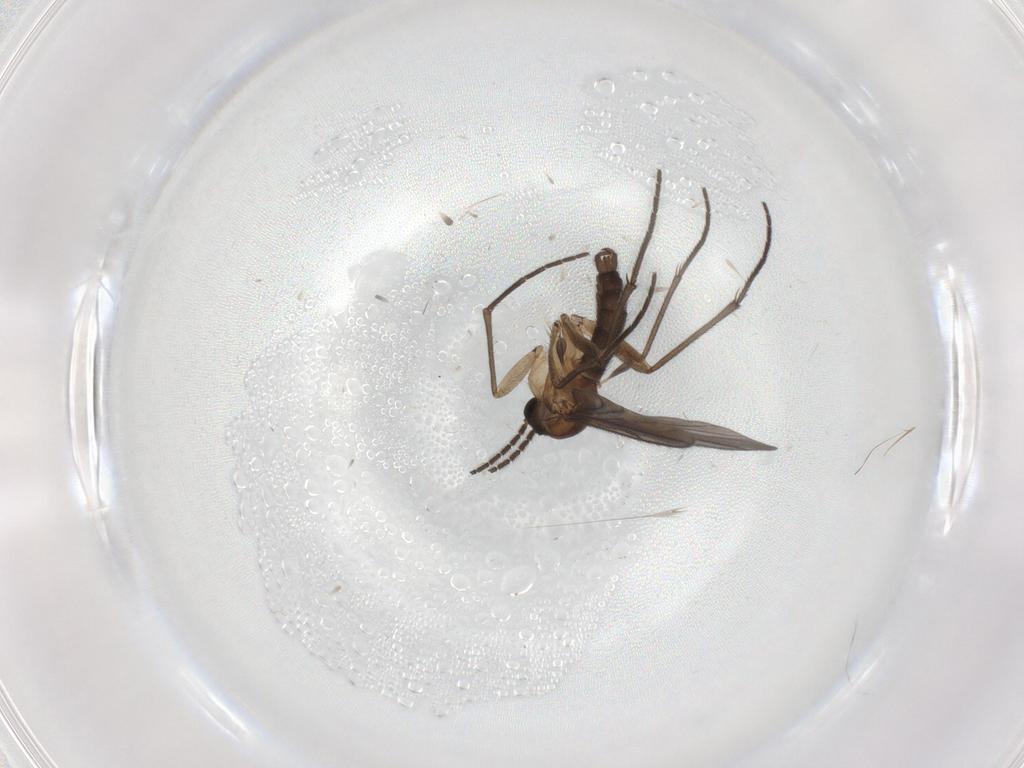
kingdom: Animalia
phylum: Arthropoda
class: Insecta
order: Diptera
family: Sciaridae
